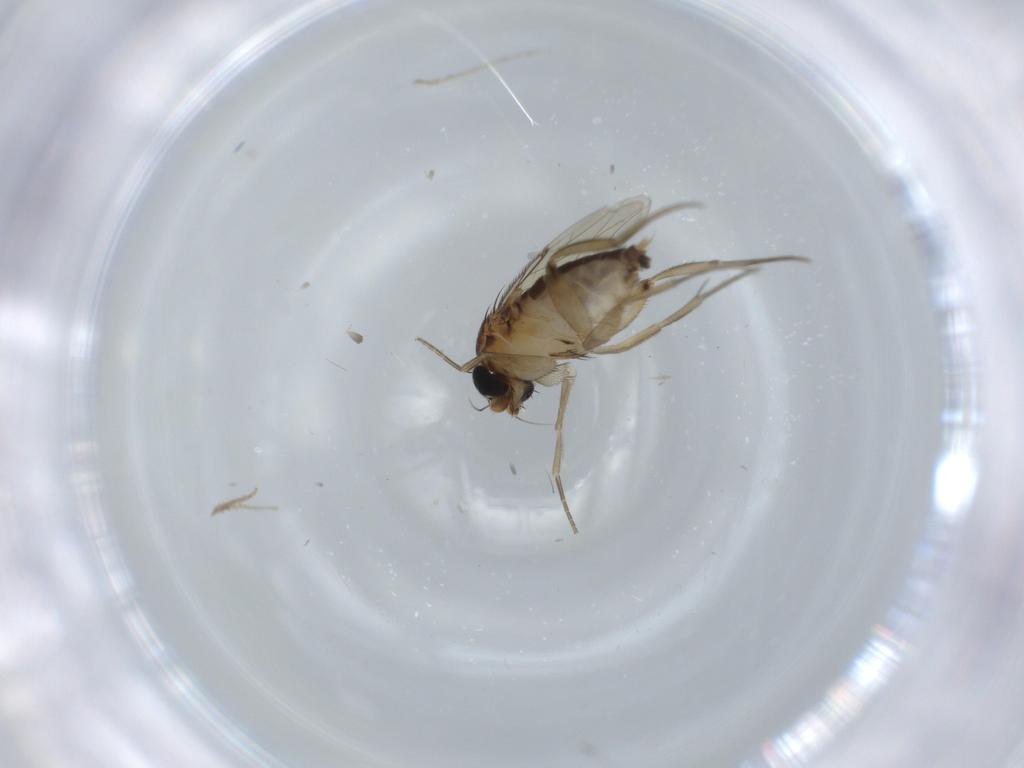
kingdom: Animalia
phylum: Arthropoda
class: Insecta
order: Diptera
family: Phoridae
